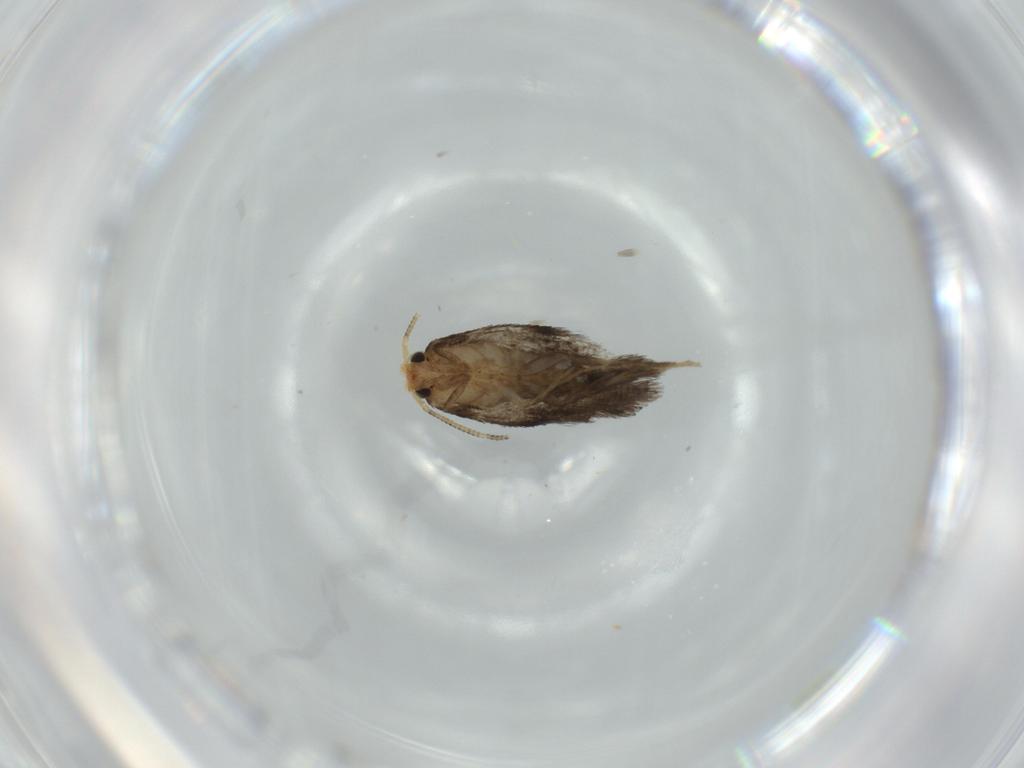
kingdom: Animalia
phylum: Arthropoda
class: Insecta
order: Lepidoptera
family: Nepticulidae
